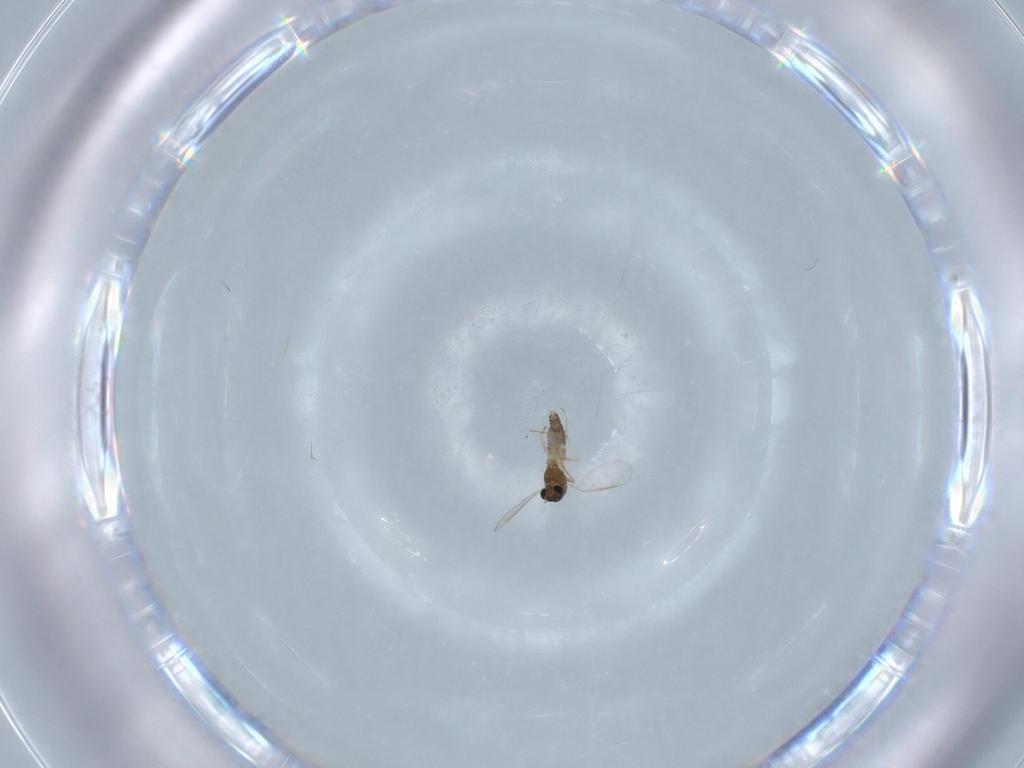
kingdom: Animalia
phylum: Arthropoda
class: Insecta
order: Diptera
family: Chironomidae
